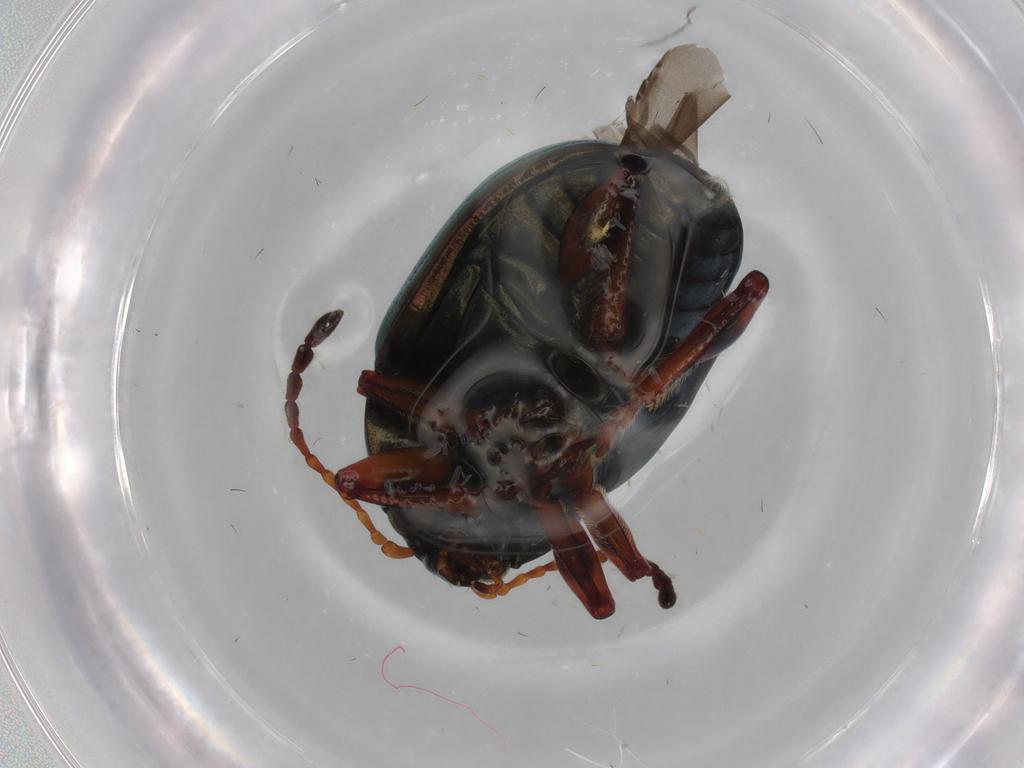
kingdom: Animalia
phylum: Arthropoda
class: Insecta
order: Coleoptera
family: Chrysomelidae
